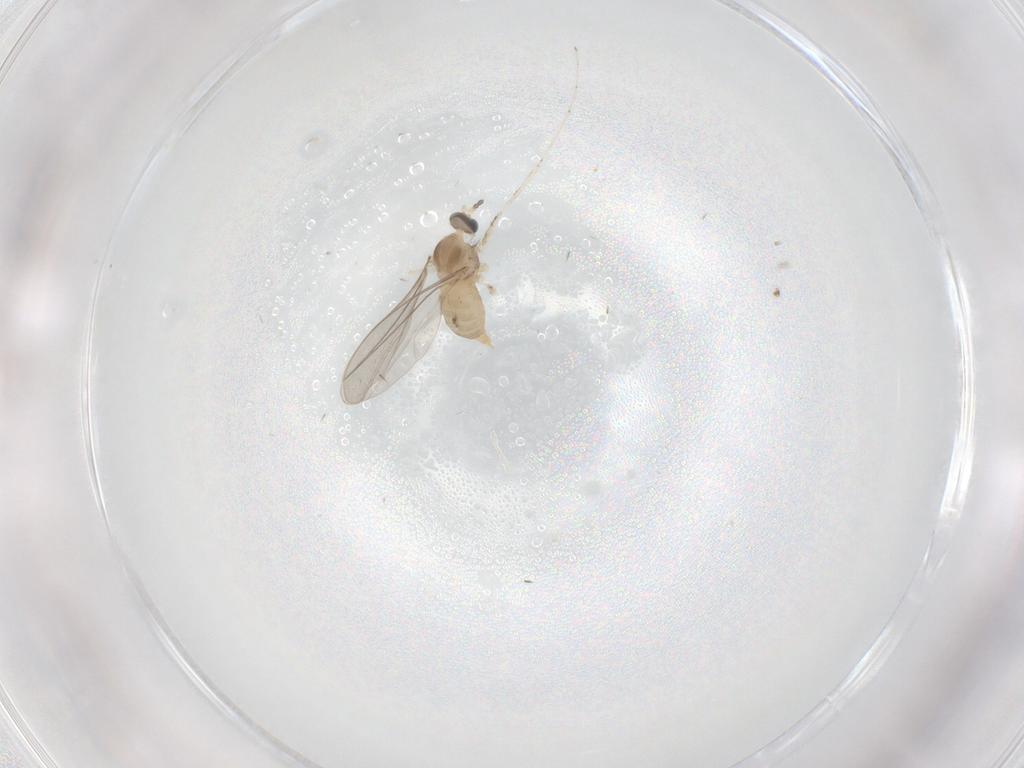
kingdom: Animalia
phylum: Arthropoda
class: Insecta
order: Diptera
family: Cecidomyiidae
